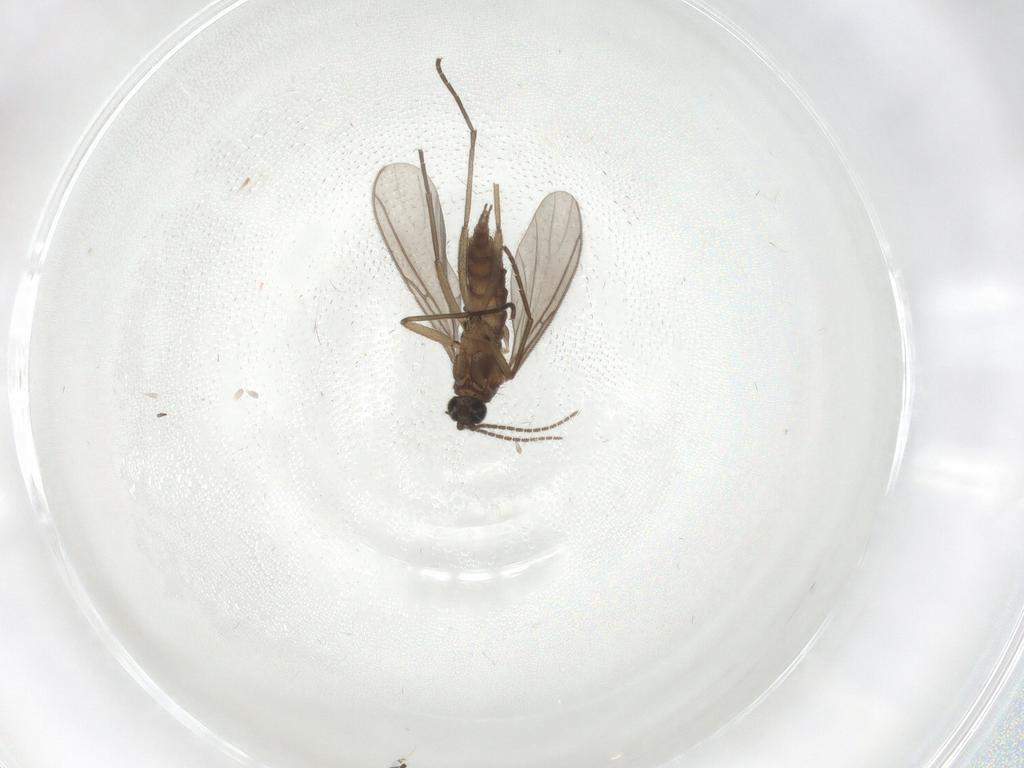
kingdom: Animalia
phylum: Arthropoda
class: Insecta
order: Diptera
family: Sciaridae
